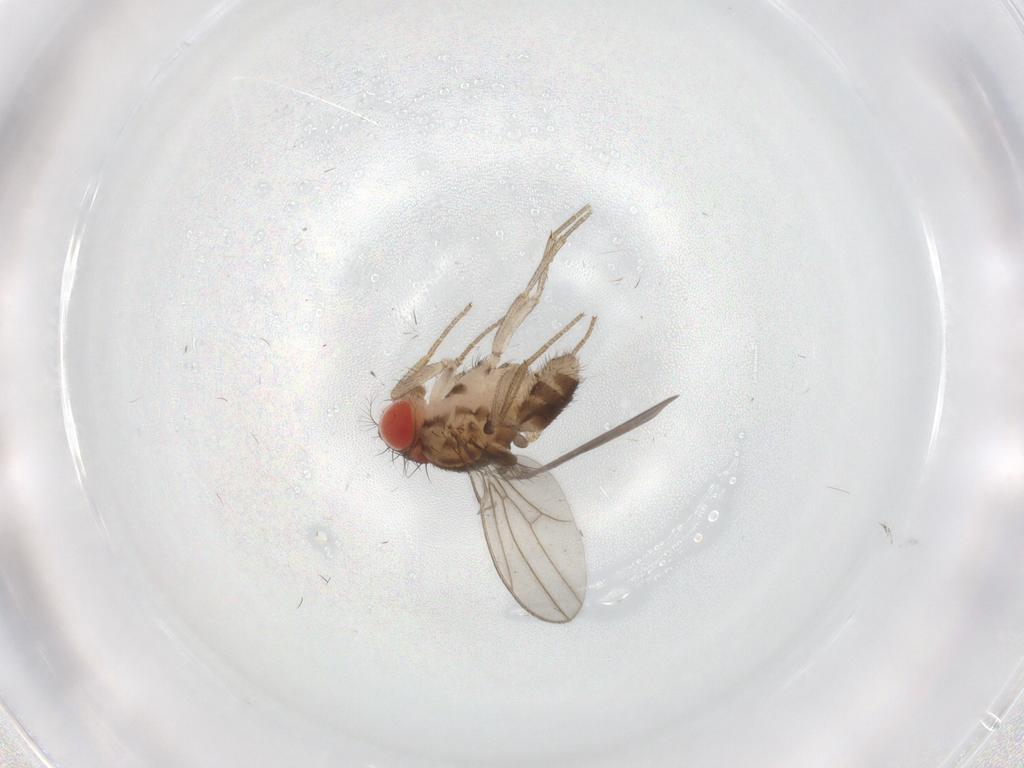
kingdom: Animalia
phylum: Arthropoda
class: Insecta
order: Diptera
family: Drosophilidae
